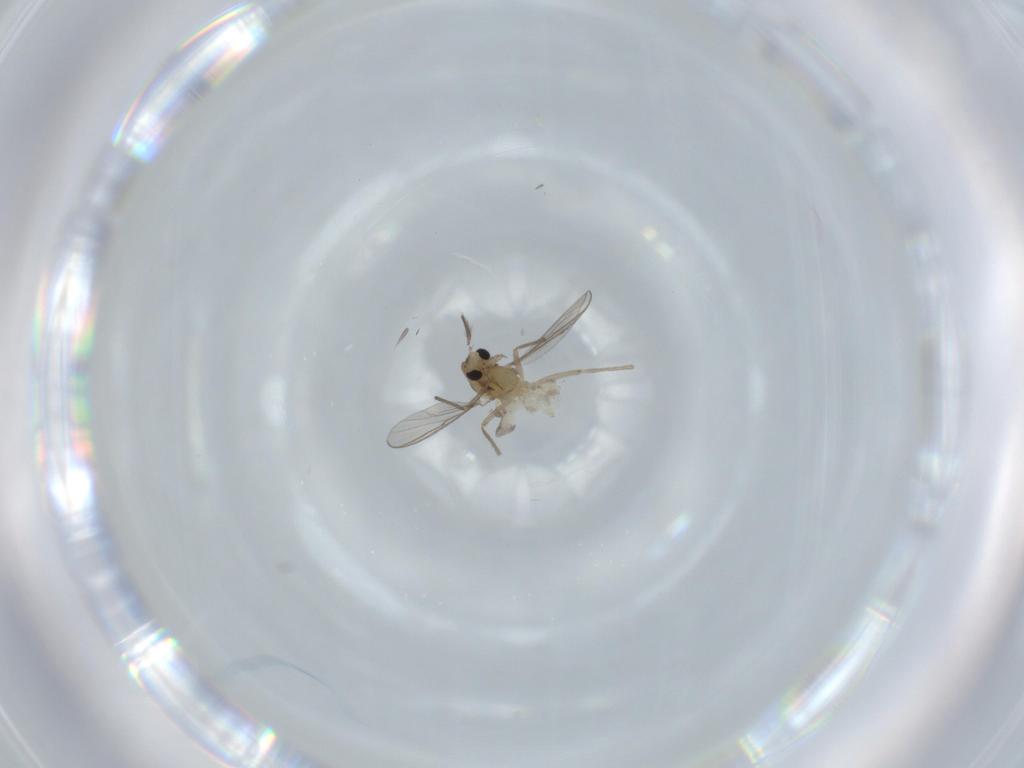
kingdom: Animalia
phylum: Arthropoda
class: Insecta
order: Diptera
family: Chironomidae
